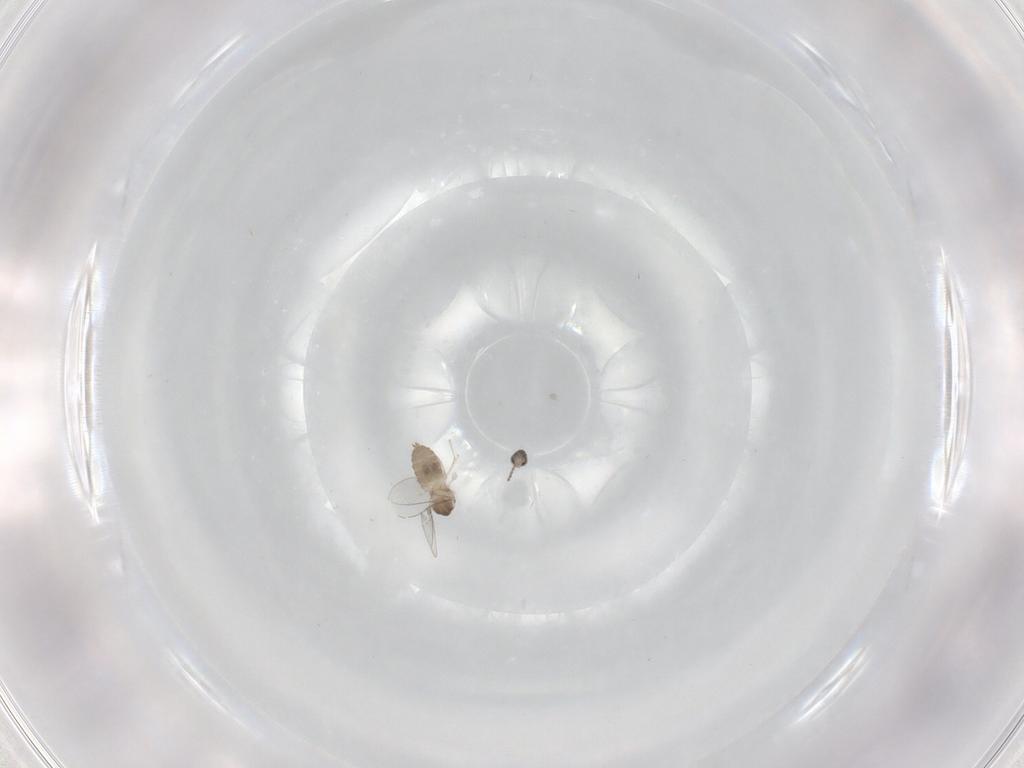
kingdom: Animalia
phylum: Arthropoda
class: Insecta
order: Diptera
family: Cecidomyiidae
